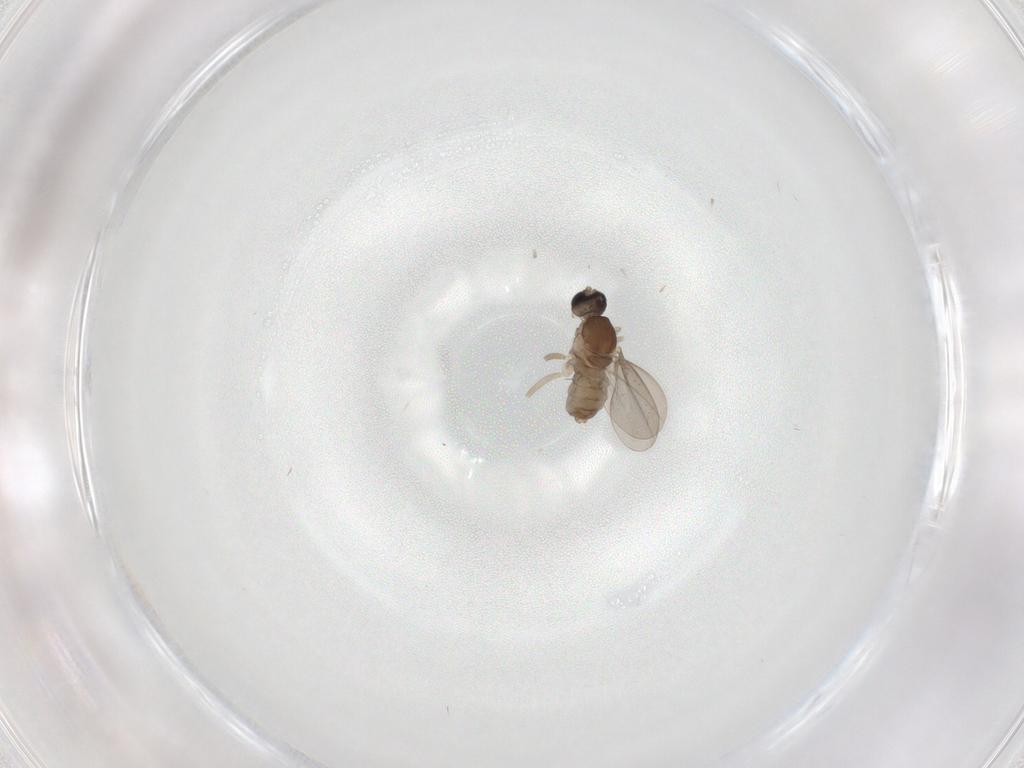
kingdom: Animalia
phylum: Arthropoda
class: Insecta
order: Diptera
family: Cecidomyiidae
